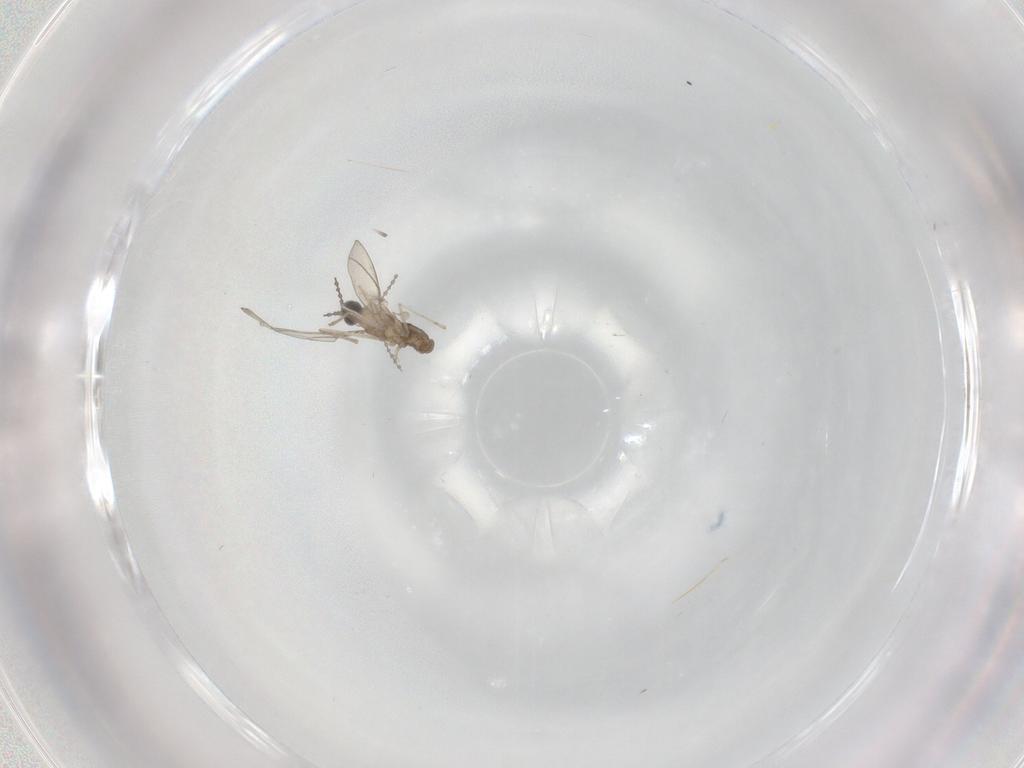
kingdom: Animalia
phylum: Arthropoda
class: Insecta
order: Diptera
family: Cecidomyiidae
